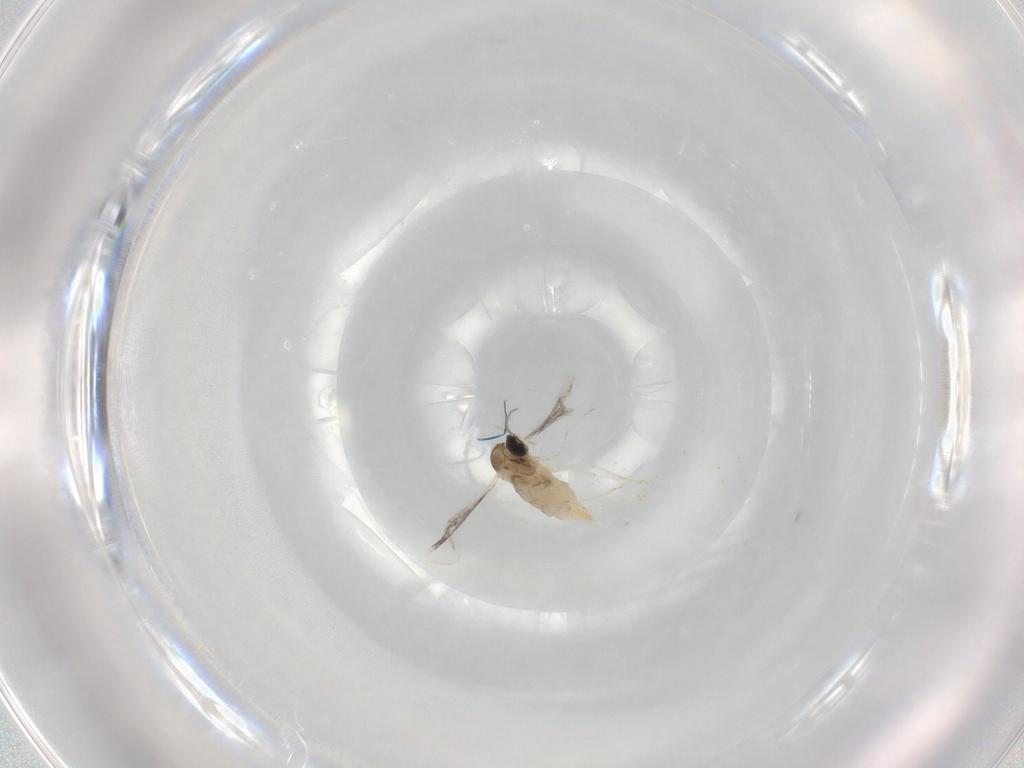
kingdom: Animalia
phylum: Arthropoda
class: Insecta
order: Diptera
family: Cecidomyiidae
